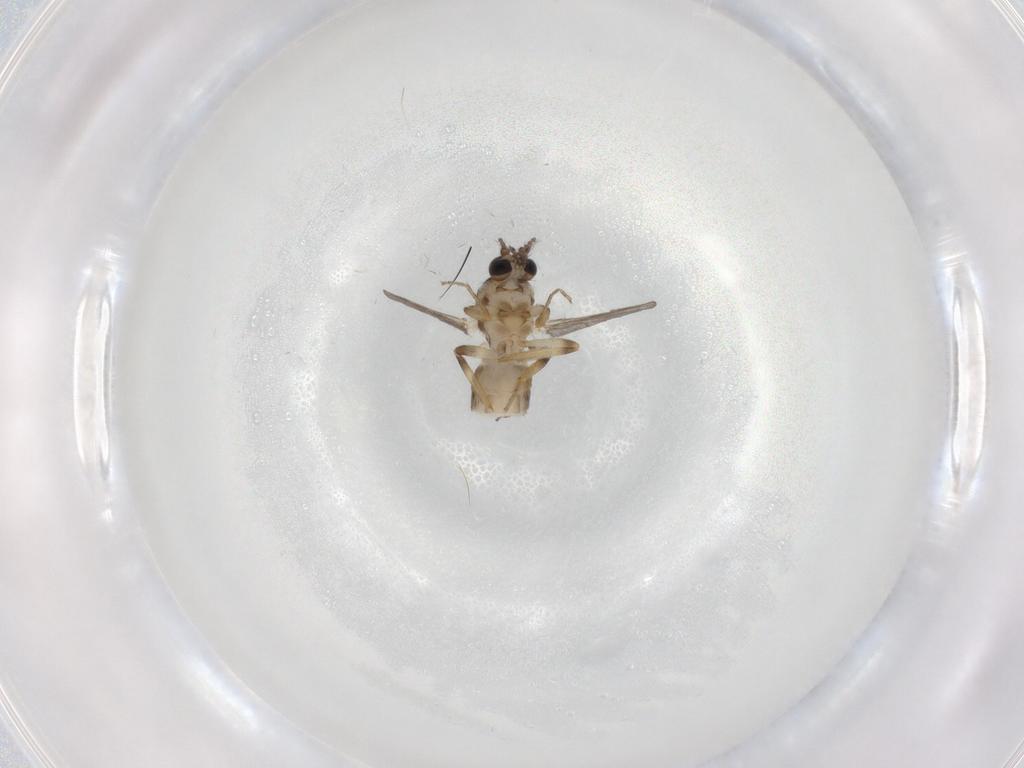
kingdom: Animalia
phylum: Arthropoda
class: Insecta
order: Diptera
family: Ceratopogonidae
